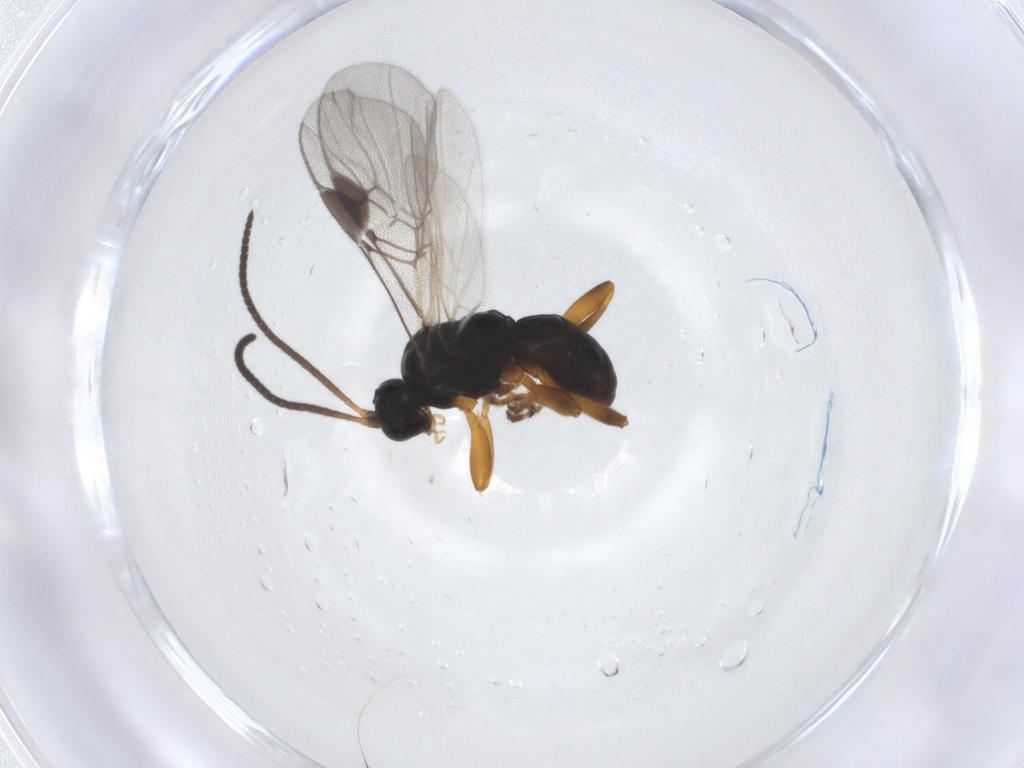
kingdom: Animalia
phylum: Arthropoda
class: Insecta
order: Hymenoptera
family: Braconidae
